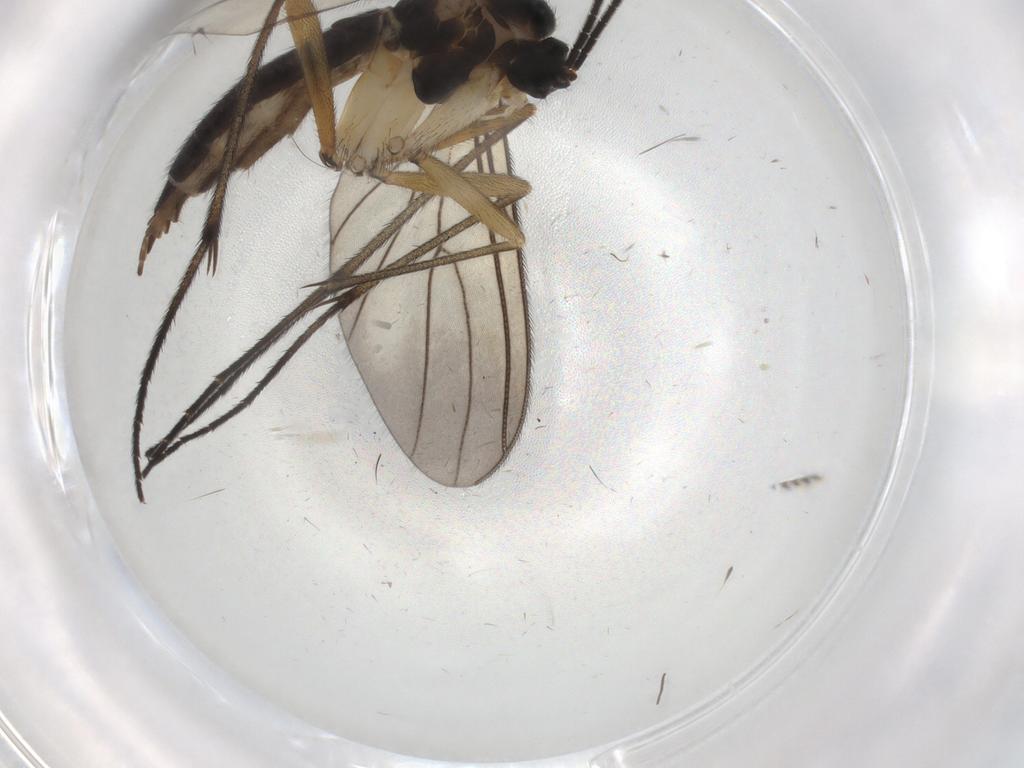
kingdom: Animalia
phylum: Arthropoda
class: Insecta
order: Diptera
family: Sciaridae
